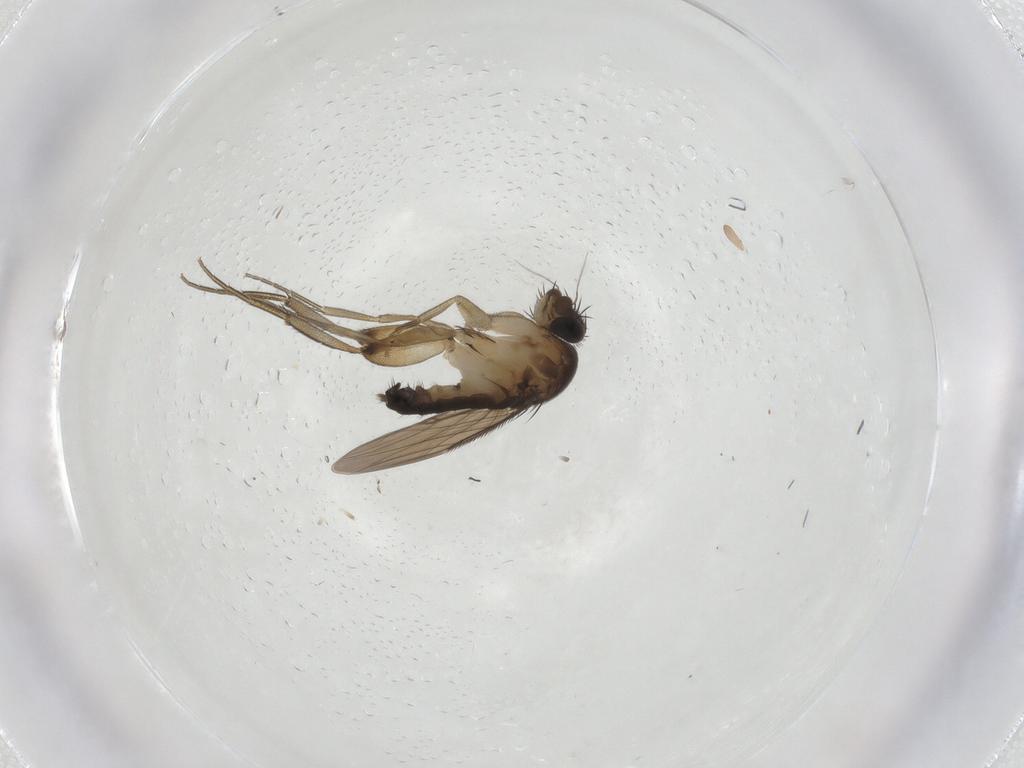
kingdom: Animalia
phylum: Arthropoda
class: Insecta
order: Diptera
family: Phoridae
